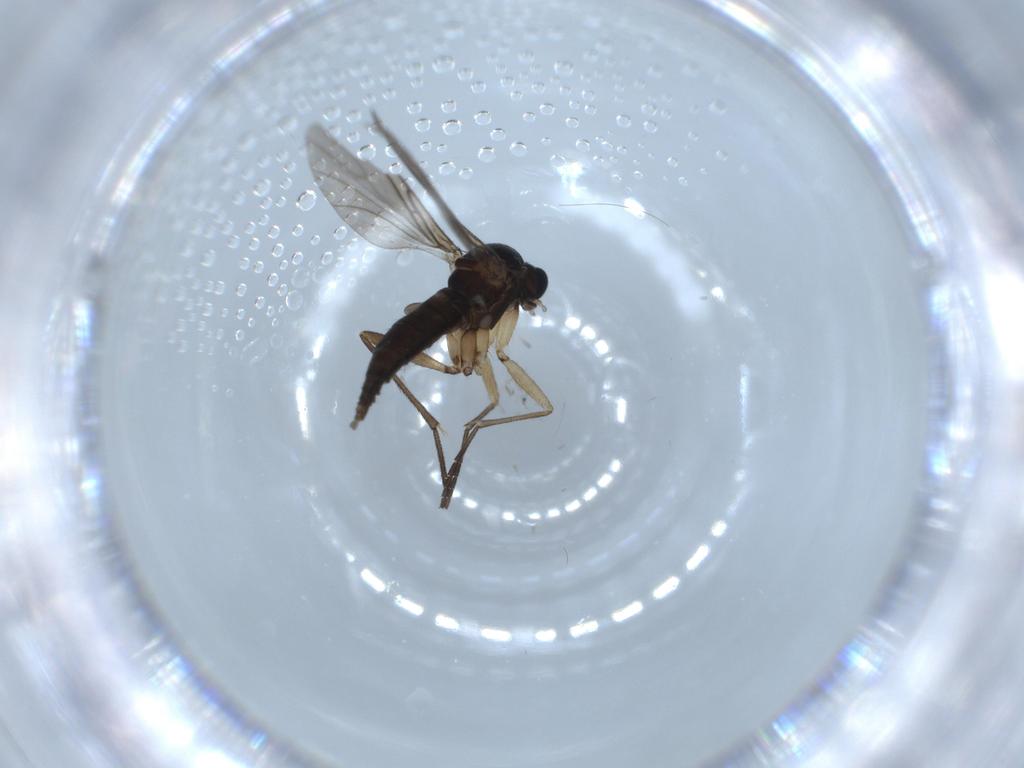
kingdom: Animalia
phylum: Arthropoda
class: Insecta
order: Diptera
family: Sciaridae
